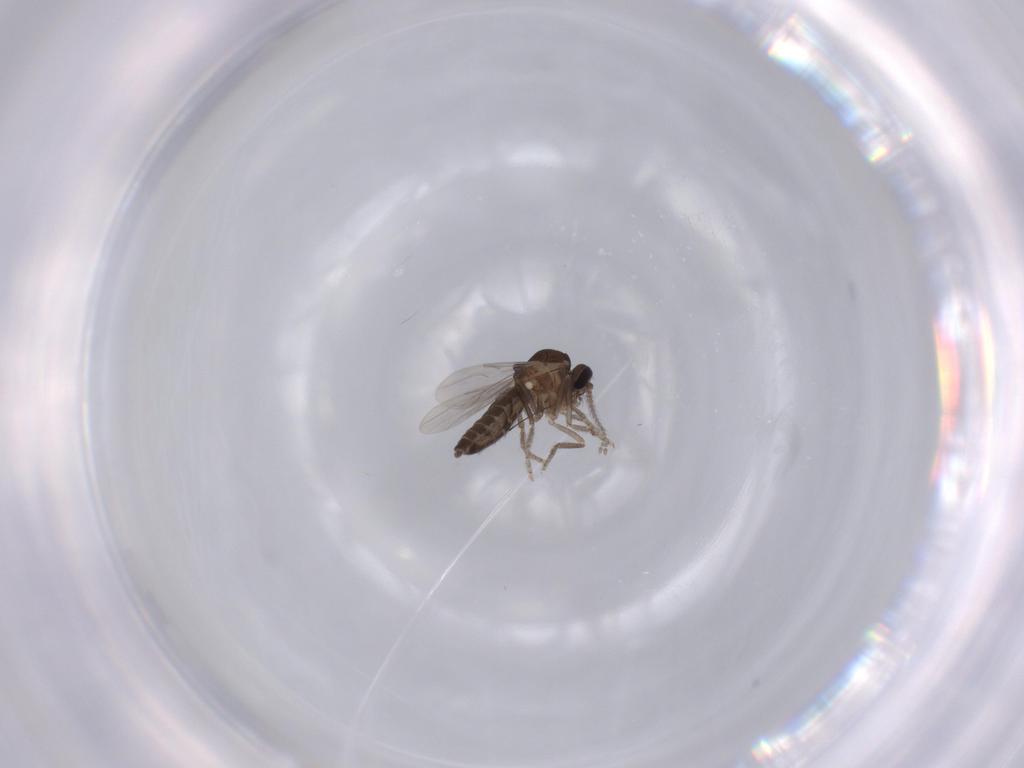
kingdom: Animalia
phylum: Arthropoda
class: Insecta
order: Diptera
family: Ceratopogonidae
